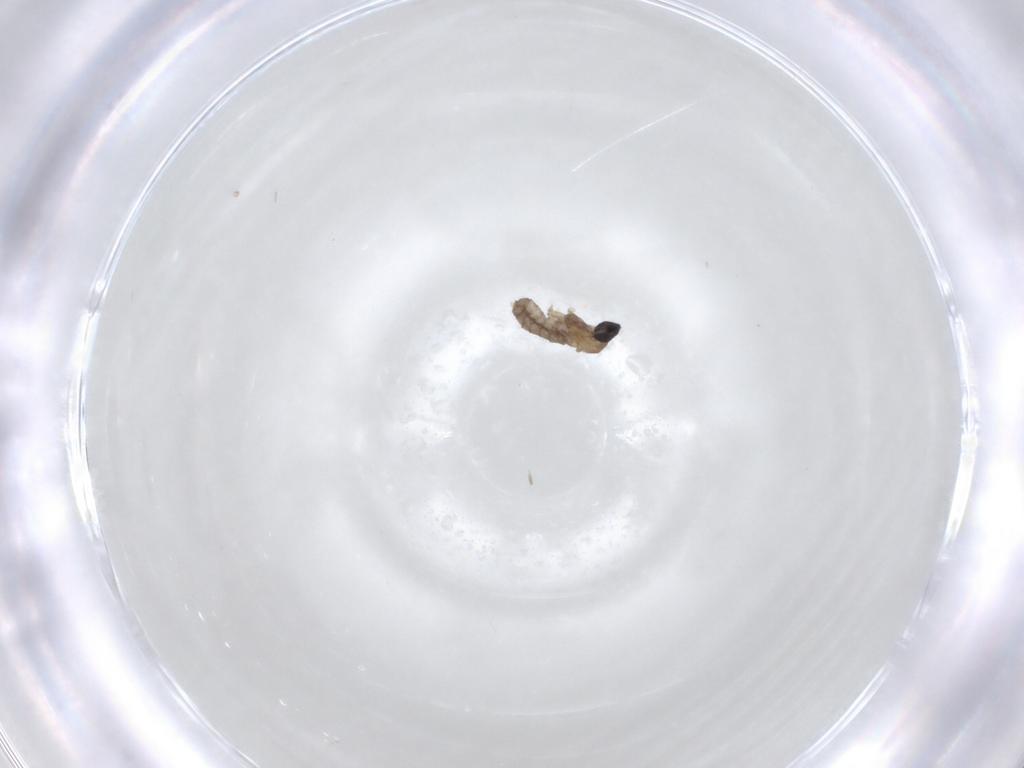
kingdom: Animalia
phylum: Arthropoda
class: Insecta
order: Diptera
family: Cecidomyiidae
